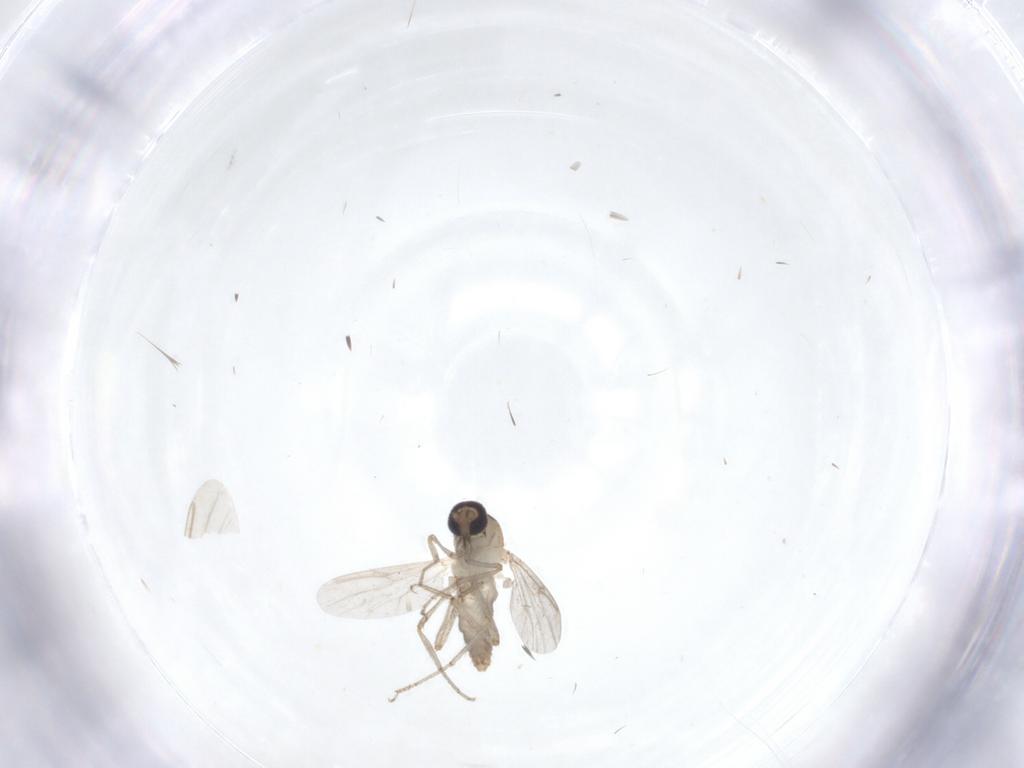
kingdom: Animalia
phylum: Arthropoda
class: Insecta
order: Diptera
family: Ceratopogonidae
